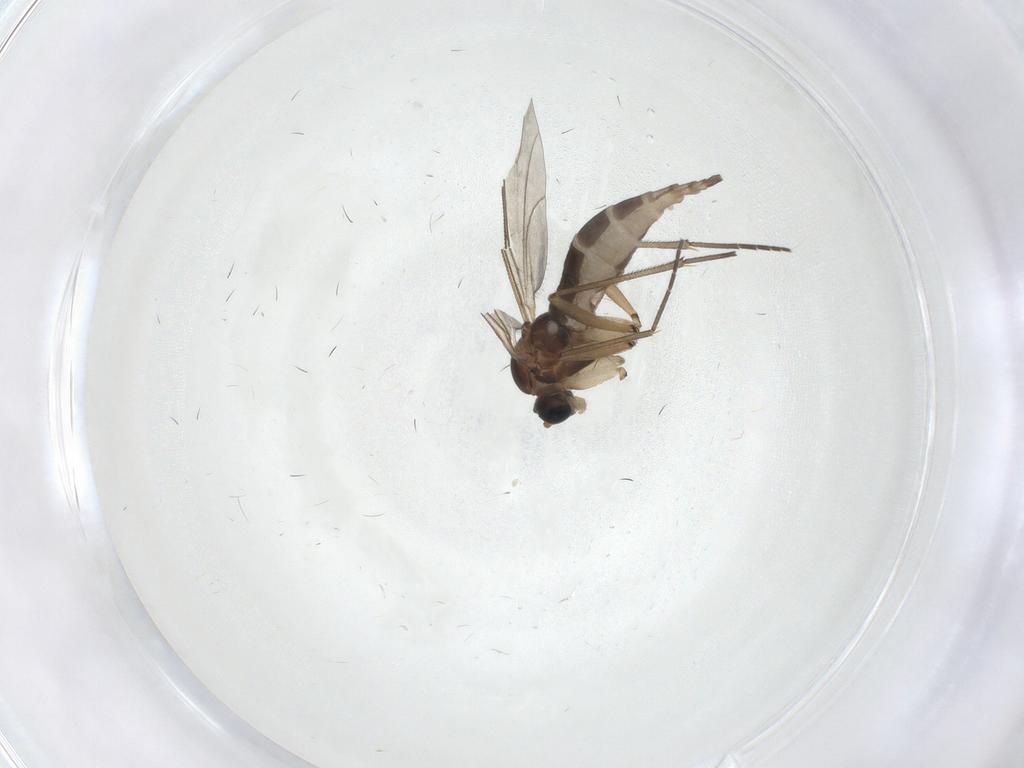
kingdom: Animalia
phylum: Arthropoda
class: Insecta
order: Diptera
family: Sciaridae
